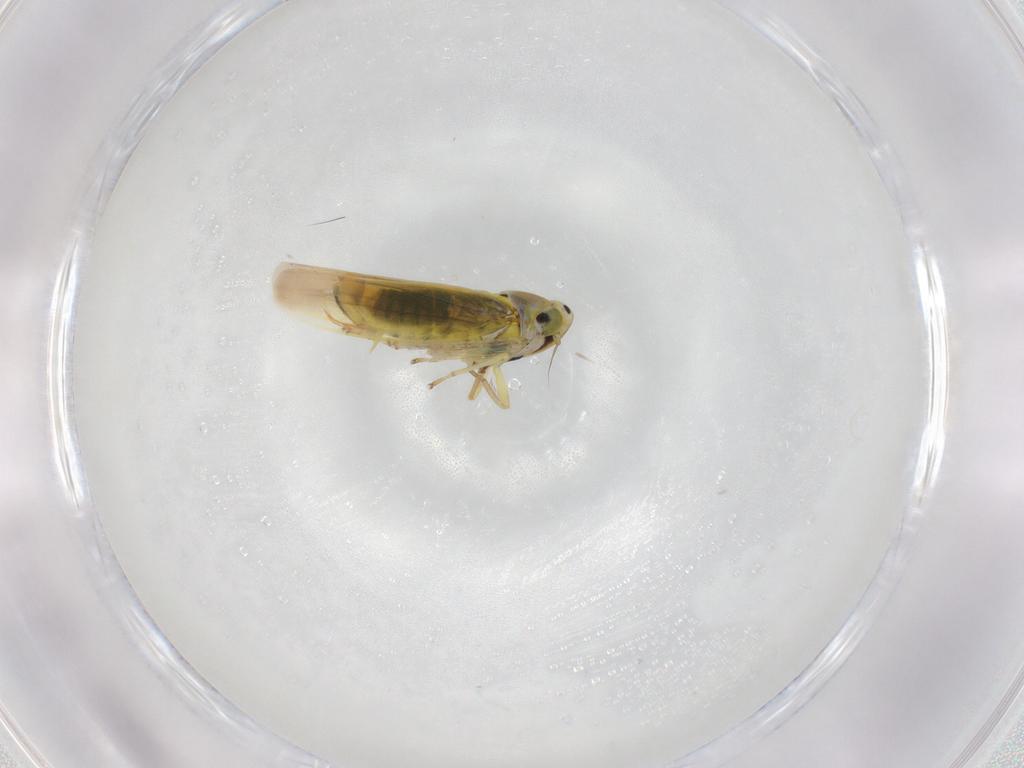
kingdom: Animalia
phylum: Arthropoda
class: Insecta
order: Hemiptera
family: Cicadellidae
